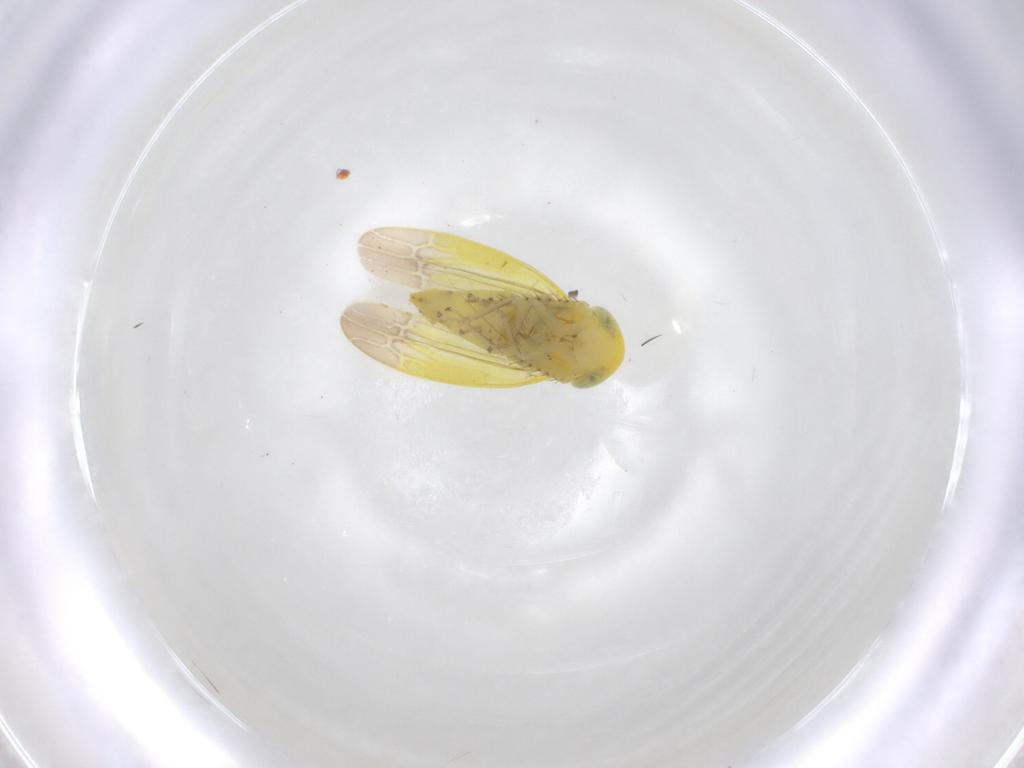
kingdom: Animalia
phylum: Arthropoda
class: Insecta
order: Hemiptera
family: Cicadellidae
